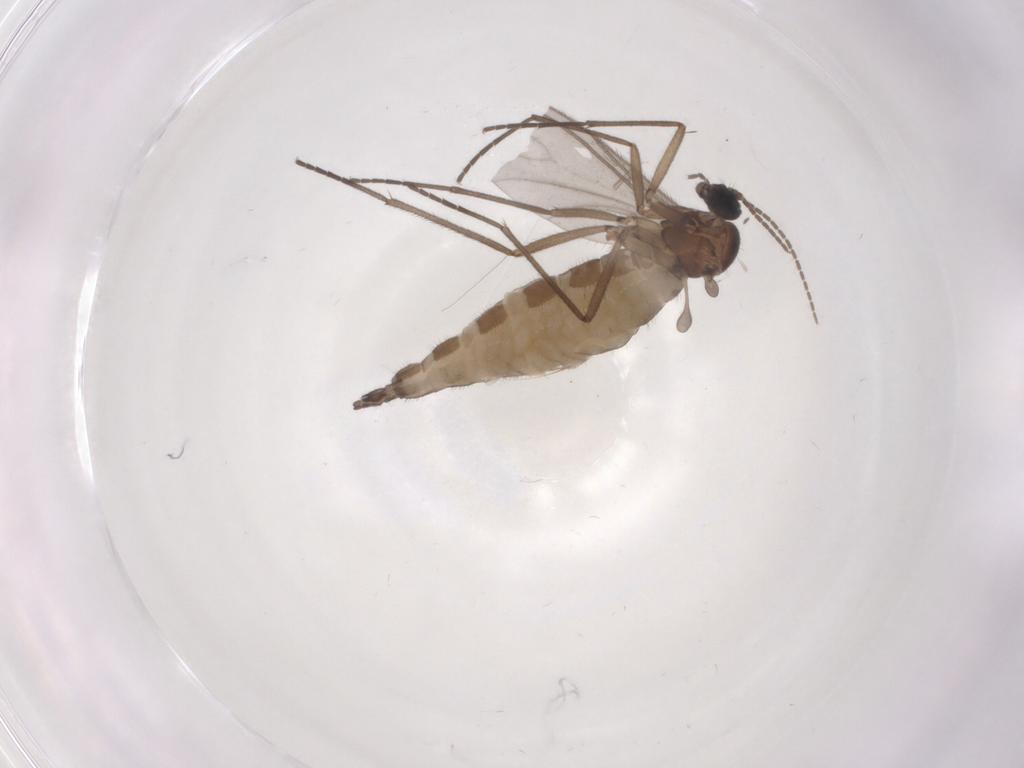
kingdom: Animalia
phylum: Arthropoda
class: Insecta
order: Diptera
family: Sciaridae
